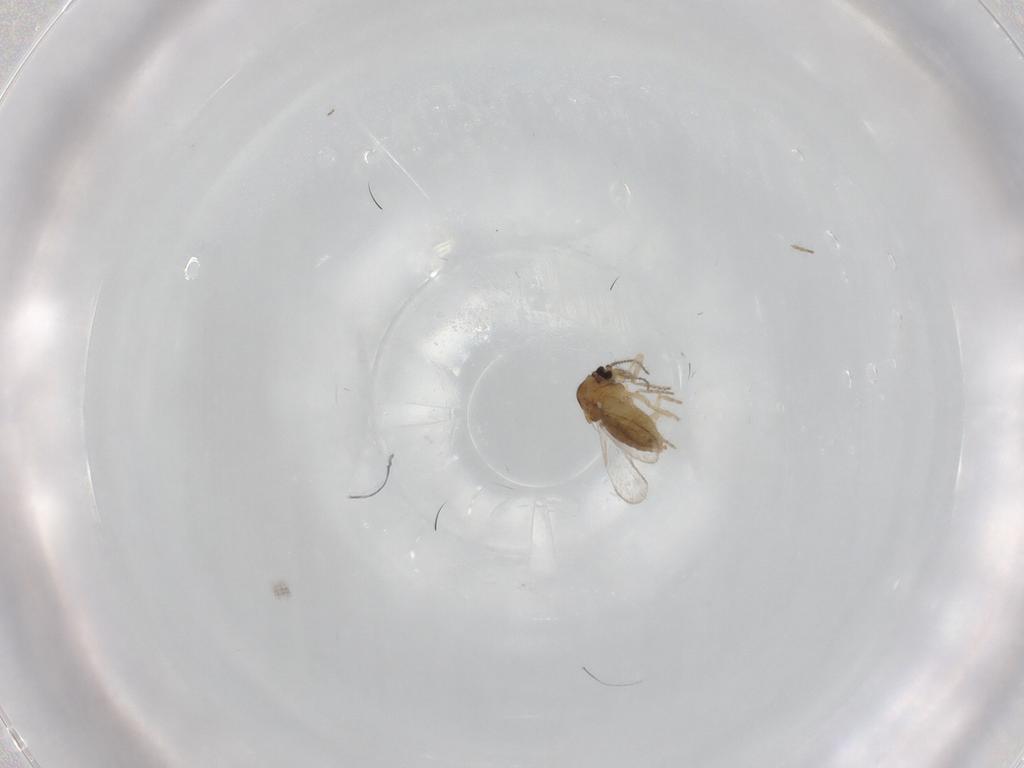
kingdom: Animalia
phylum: Arthropoda
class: Insecta
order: Diptera
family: Ceratopogonidae
